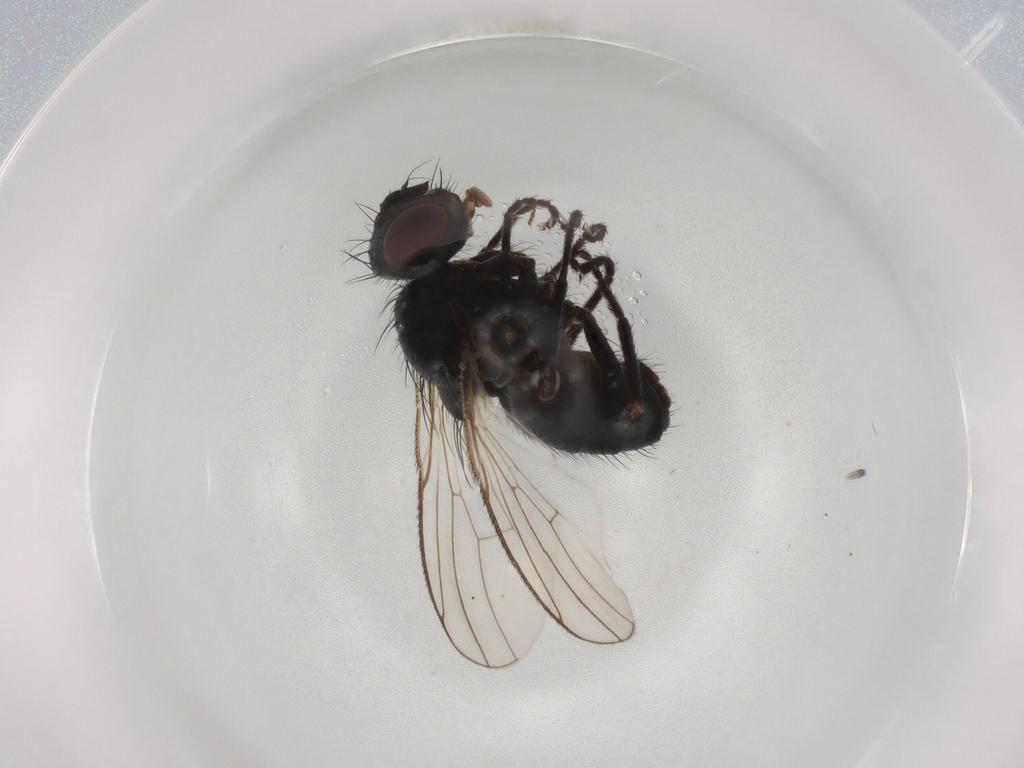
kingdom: Animalia
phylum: Arthropoda
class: Insecta
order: Diptera
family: Muscidae
